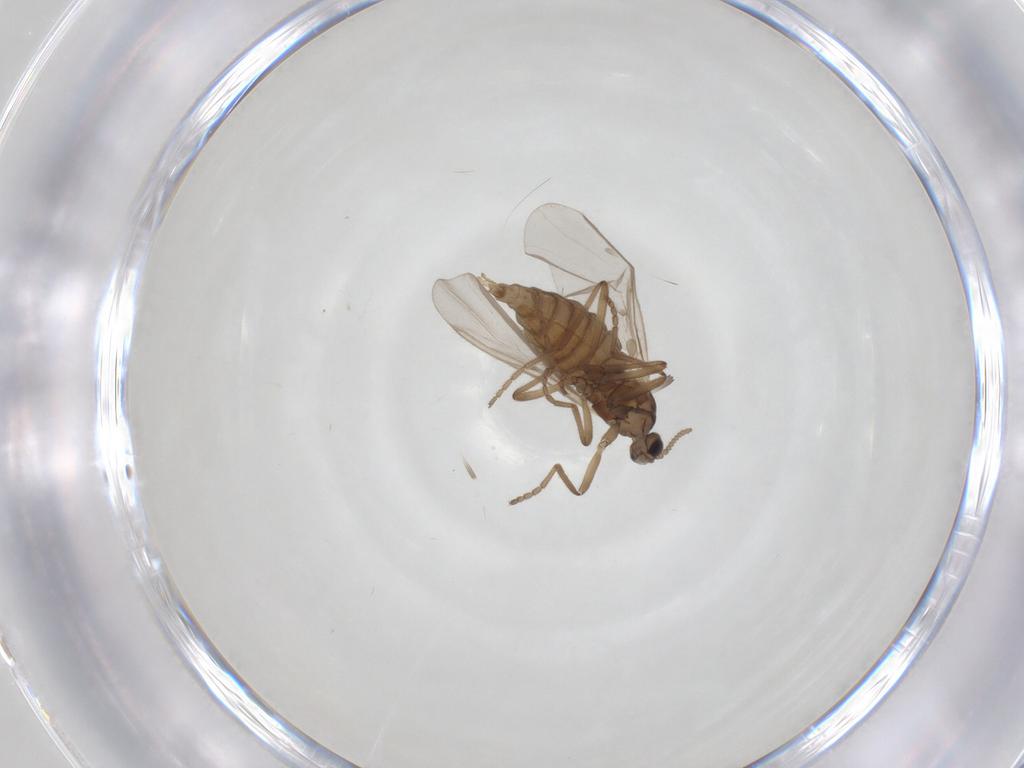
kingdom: Animalia
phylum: Arthropoda
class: Insecta
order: Diptera
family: Cecidomyiidae
